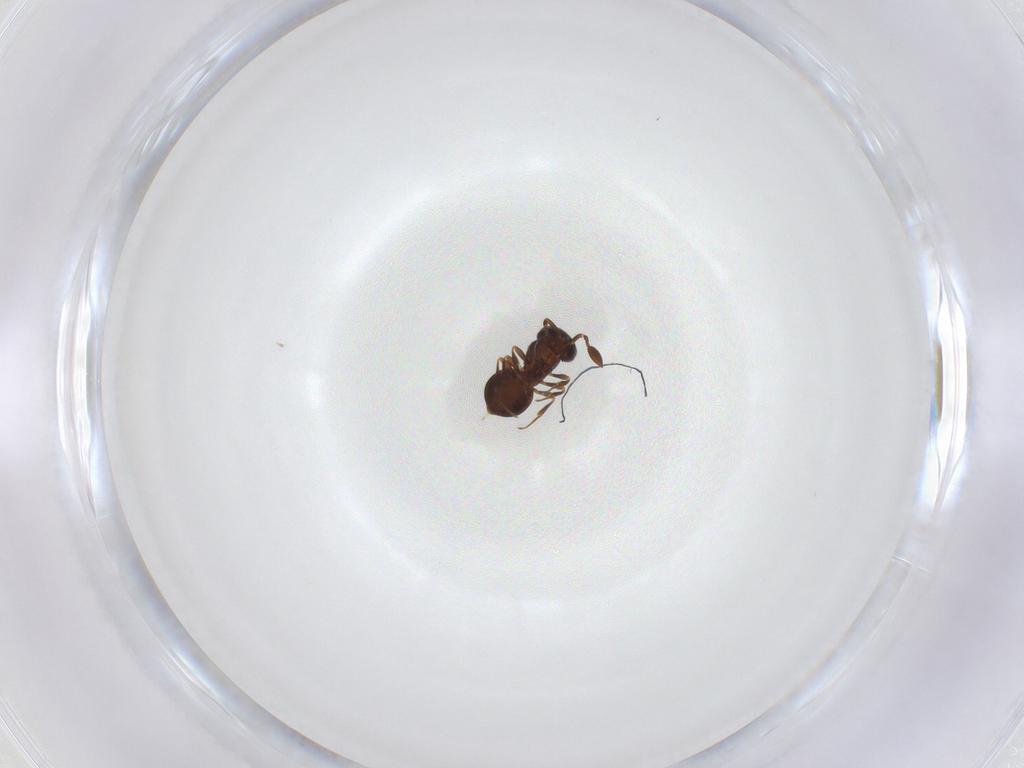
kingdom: Animalia
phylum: Arthropoda
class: Insecta
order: Hymenoptera
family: Scelionidae
